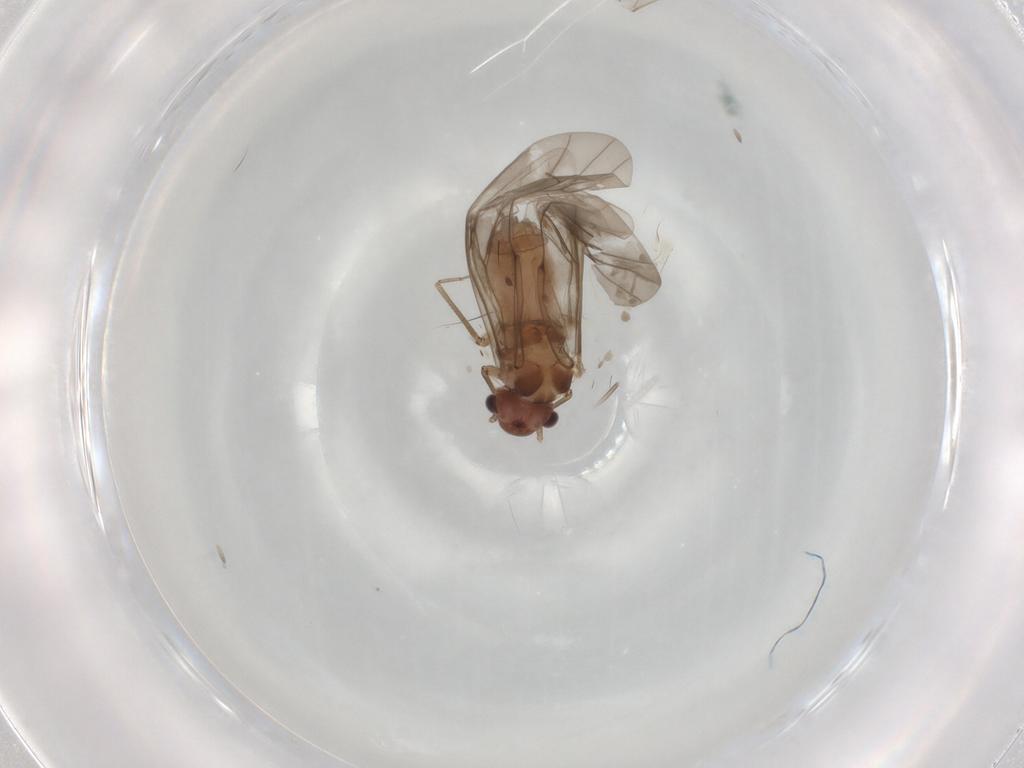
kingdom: Animalia
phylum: Arthropoda
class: Insecta
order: Psocodea
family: Peripsocidae
